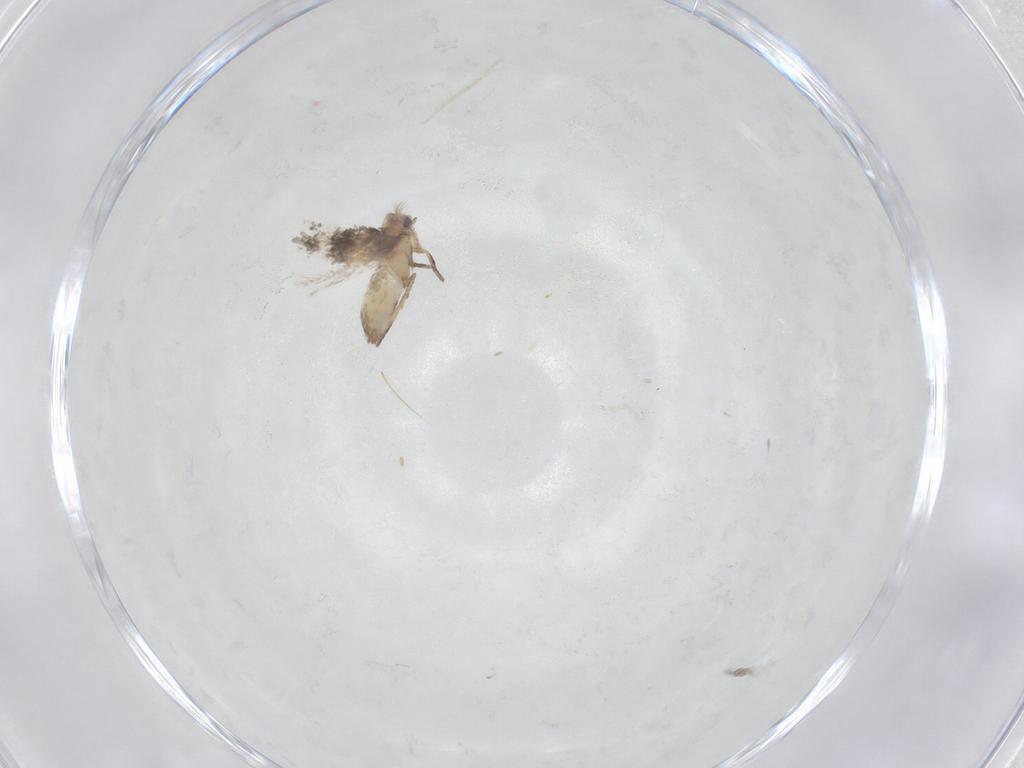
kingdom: Animalia
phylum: Arthropoda
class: Insecta
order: Lepidoptera
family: Nepticulidae
